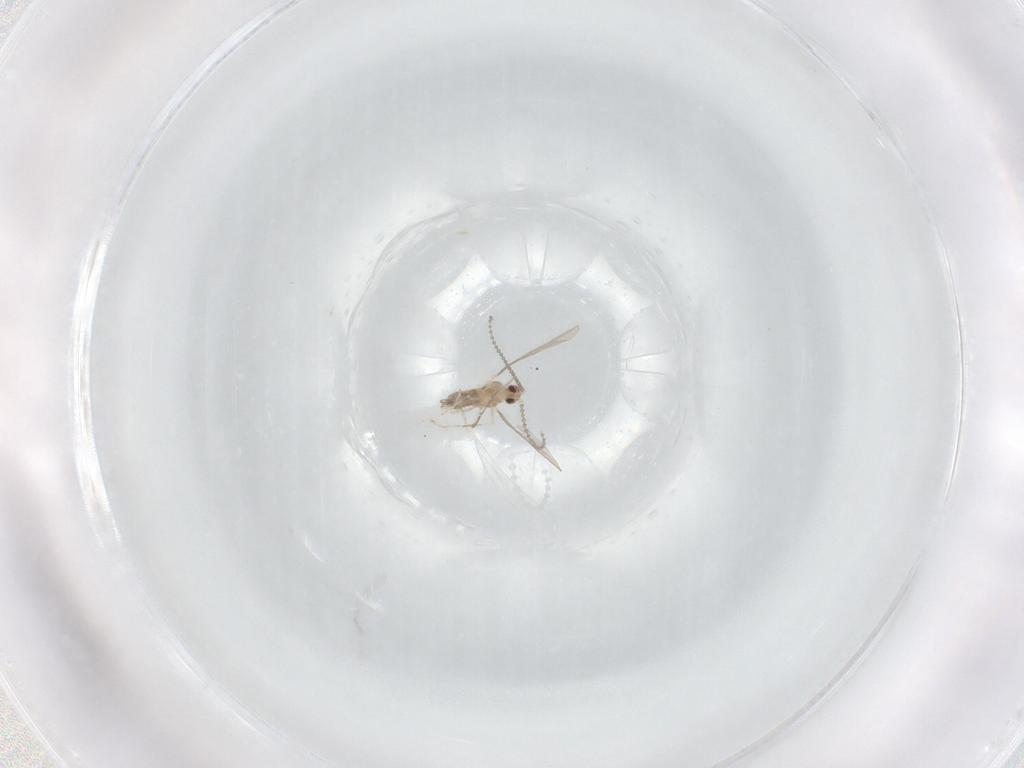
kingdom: Animalia
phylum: Arthropoda
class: Insecta
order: Diptera
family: Cecidomyiidae
